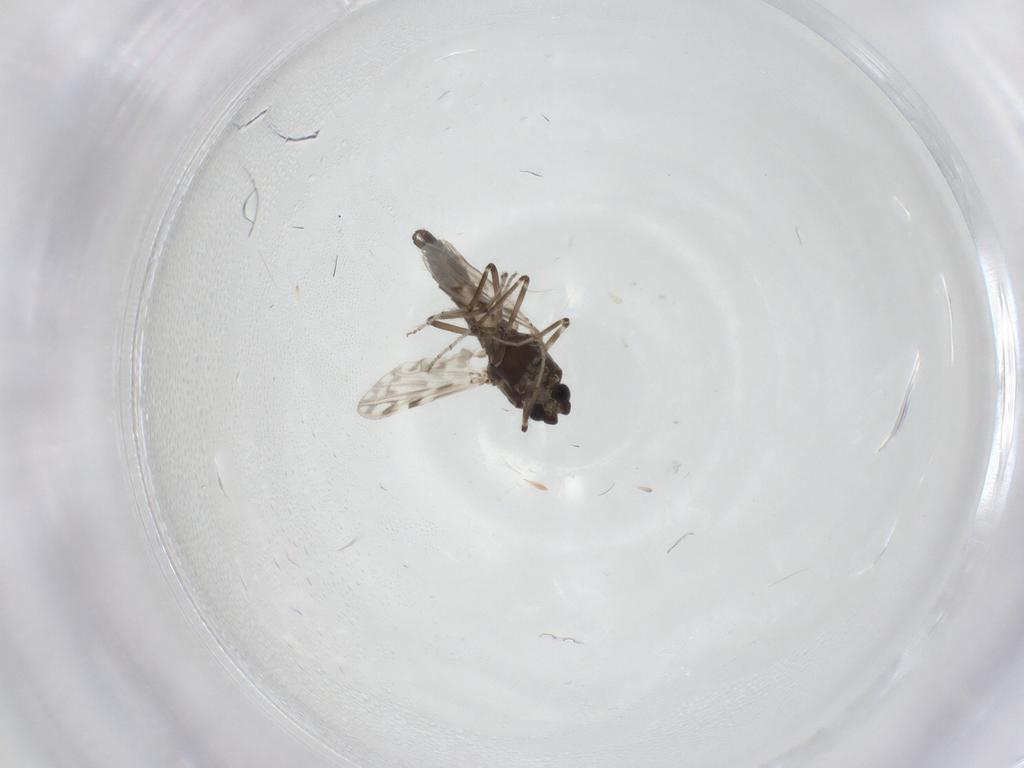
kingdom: Animalia
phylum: Arthropoda
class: Insecta
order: Diptera
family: Ceratopogonidae
